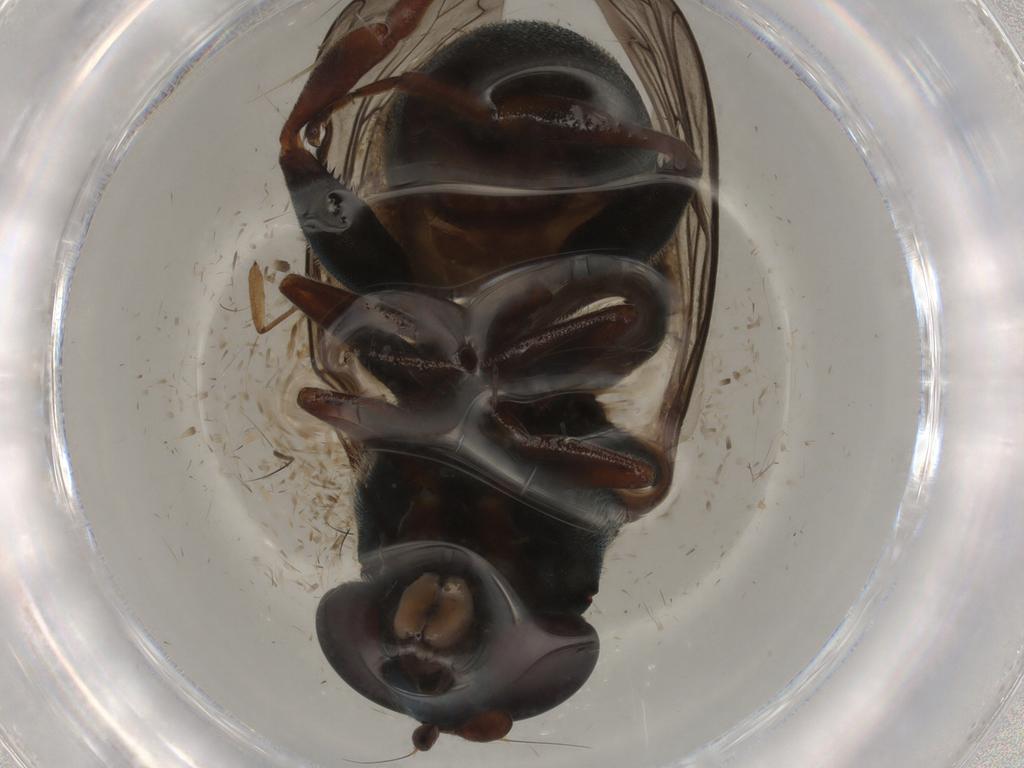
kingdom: Animalia
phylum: Arthropoda
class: Insecta
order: Diptera
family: Syrphidae
